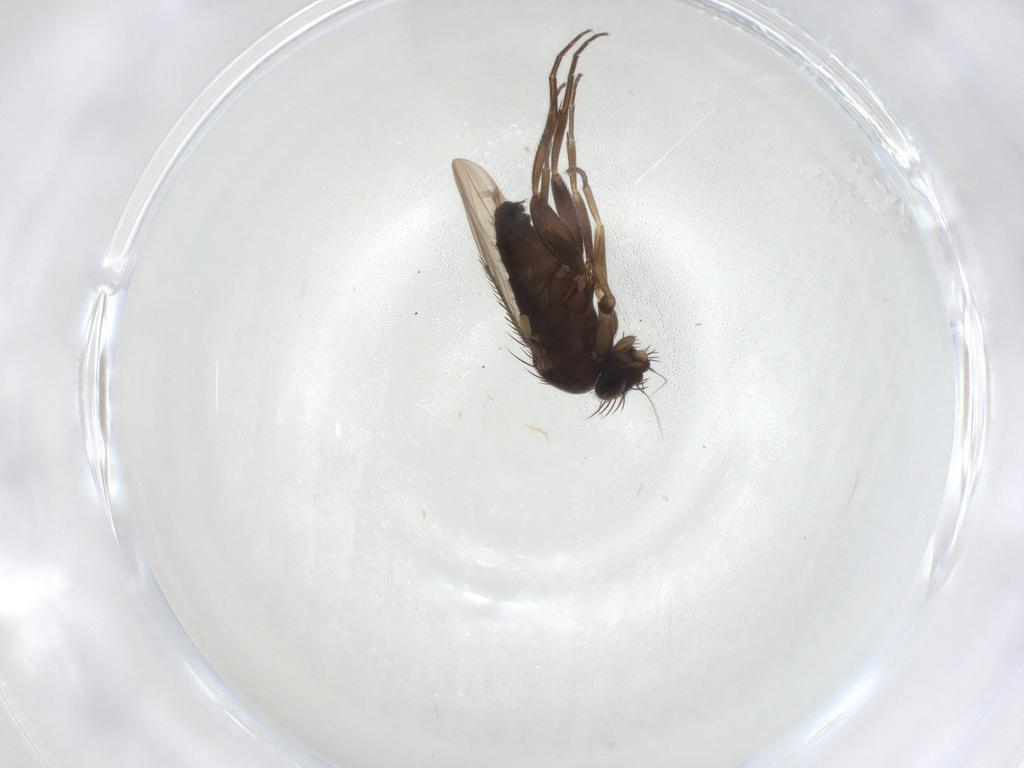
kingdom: Animalia
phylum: Arthropoda
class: Insecta
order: Diptera
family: Phoridae
